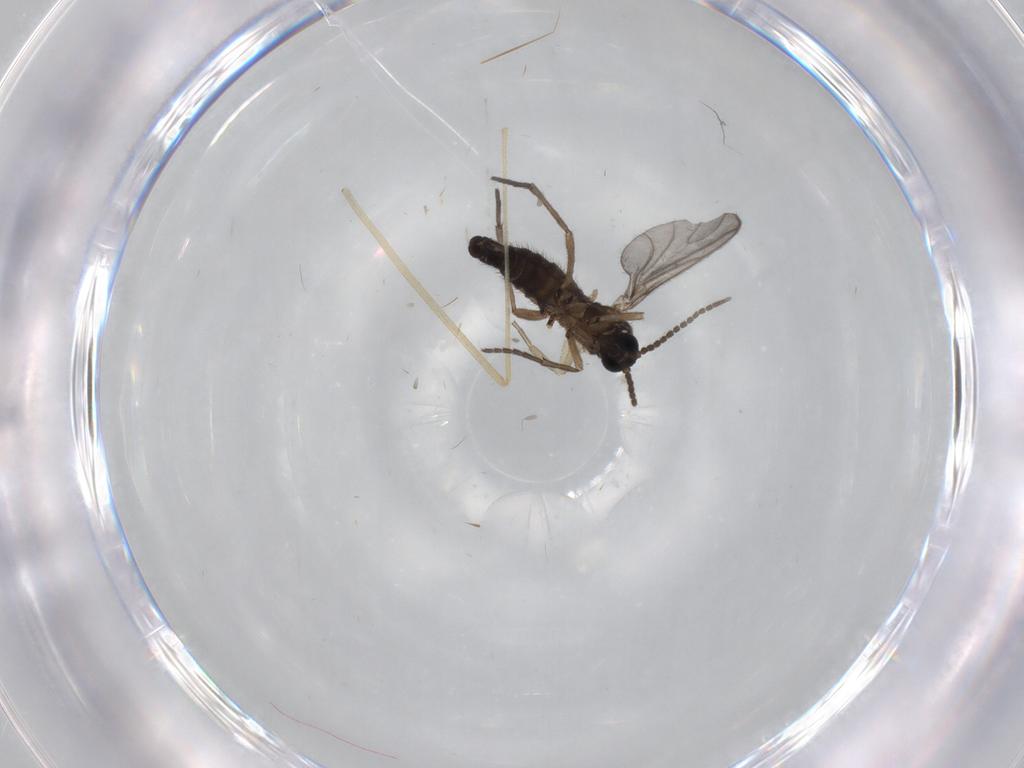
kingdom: Animalia
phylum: Arthropoda
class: Insecta
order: Diptera
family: Sciaridae
